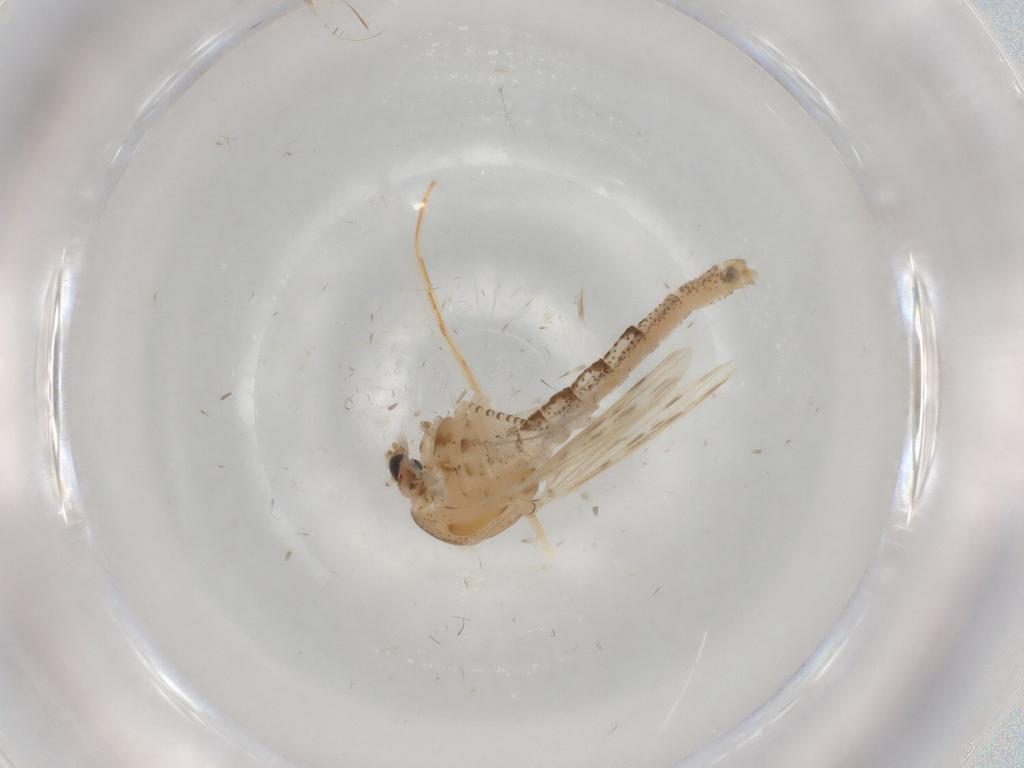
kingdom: Animalia
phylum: Arthropoda
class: Insecta
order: Diptera
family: Chaoboridae
